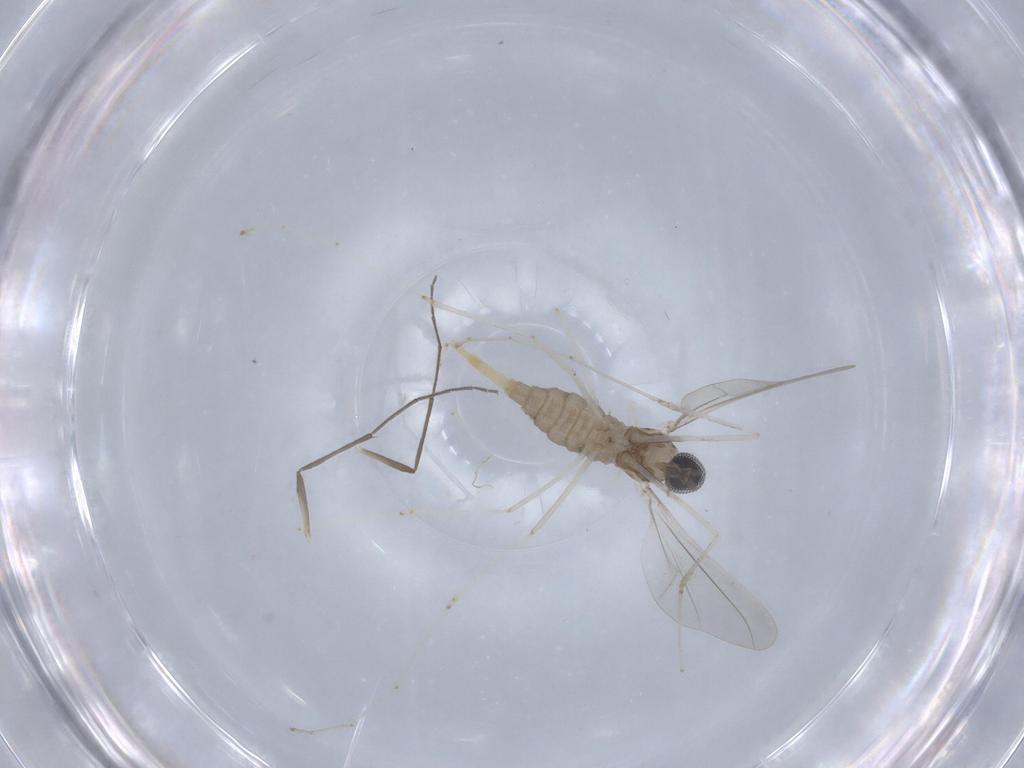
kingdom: Animalia
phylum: Arthropoda
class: Insecta
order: Diptera
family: Cecidomyiidae
